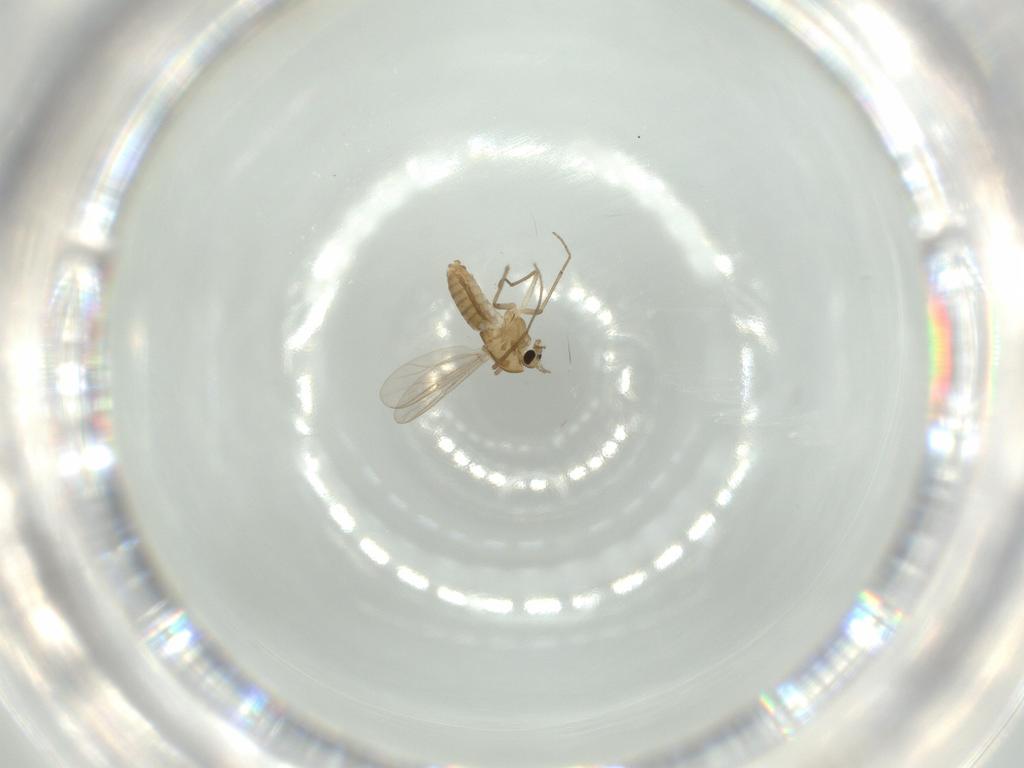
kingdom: Animalia
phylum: Arthropoda
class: Insecta
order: Diptera
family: Chironomidae
